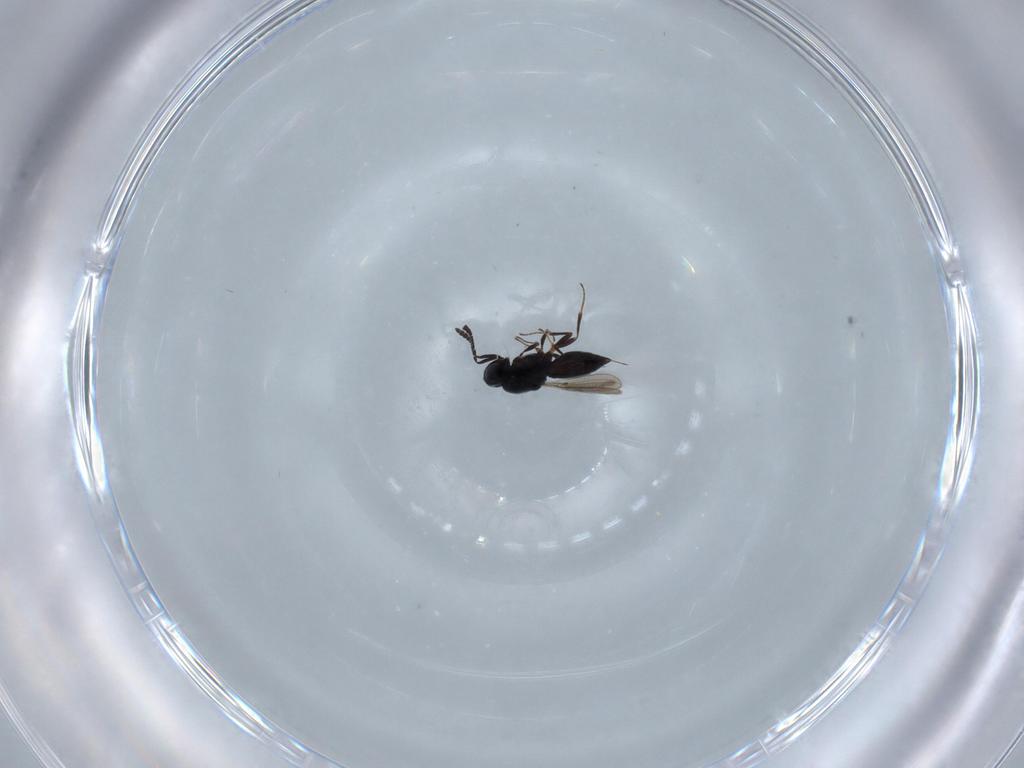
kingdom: Animalia
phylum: Arthropoda
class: Insecta
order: Hymenoptera
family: Scelionidae
